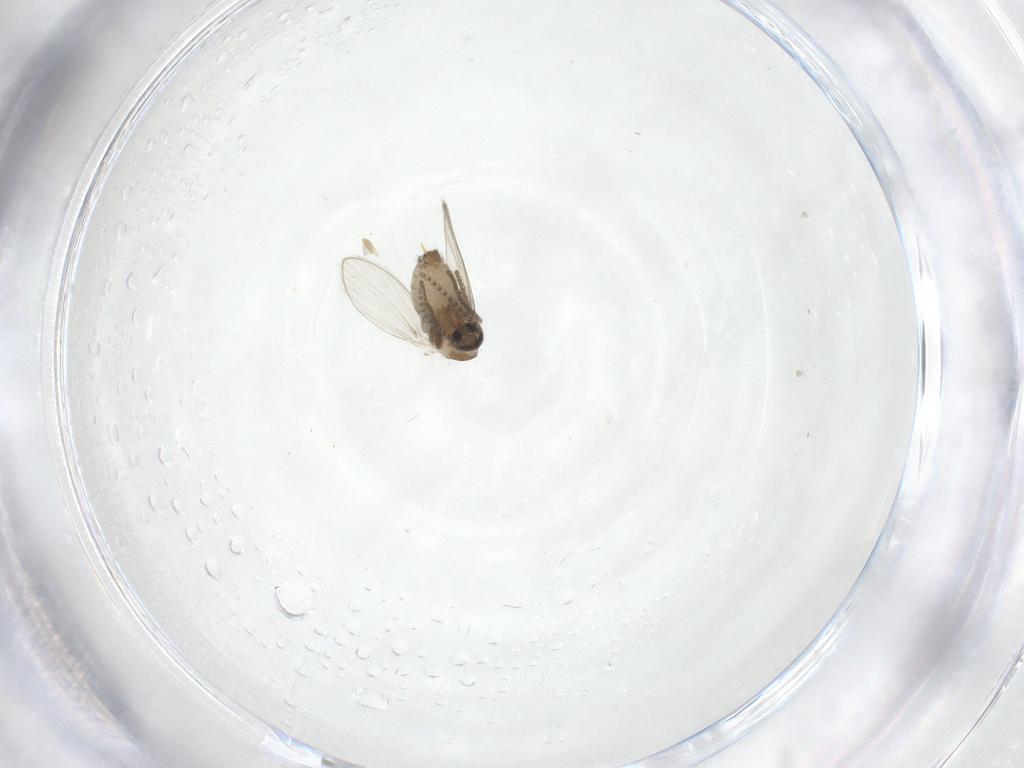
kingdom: Animalia
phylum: Arthropoda
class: Insecta
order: Diptera
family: Psychodidae
